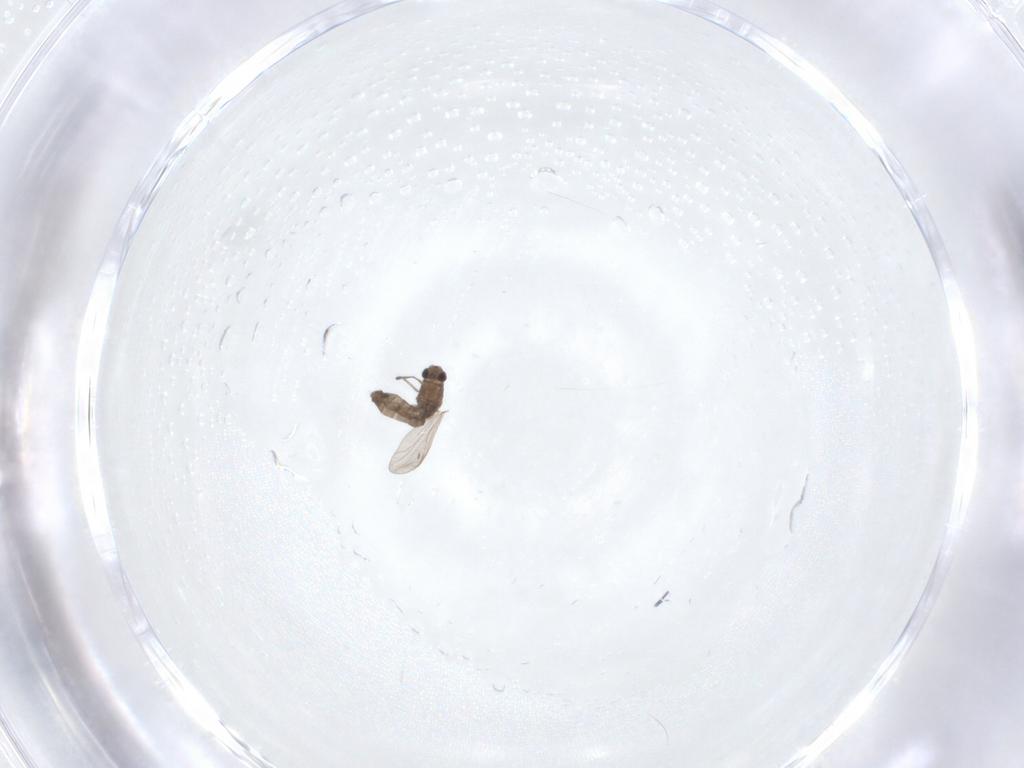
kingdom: Animalia
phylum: Arthropoda
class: Insecta
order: Diptera
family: Chironomidae
